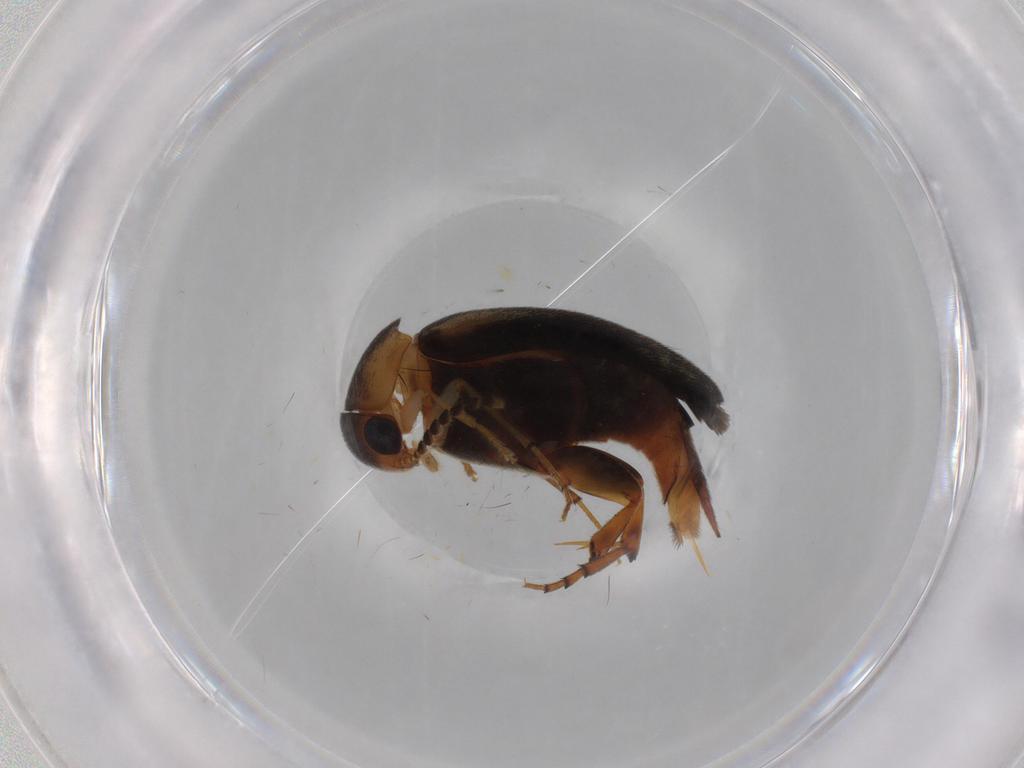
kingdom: Animalia
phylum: Arthropoda
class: Insecta
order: Coleoptera
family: Mordellidae
